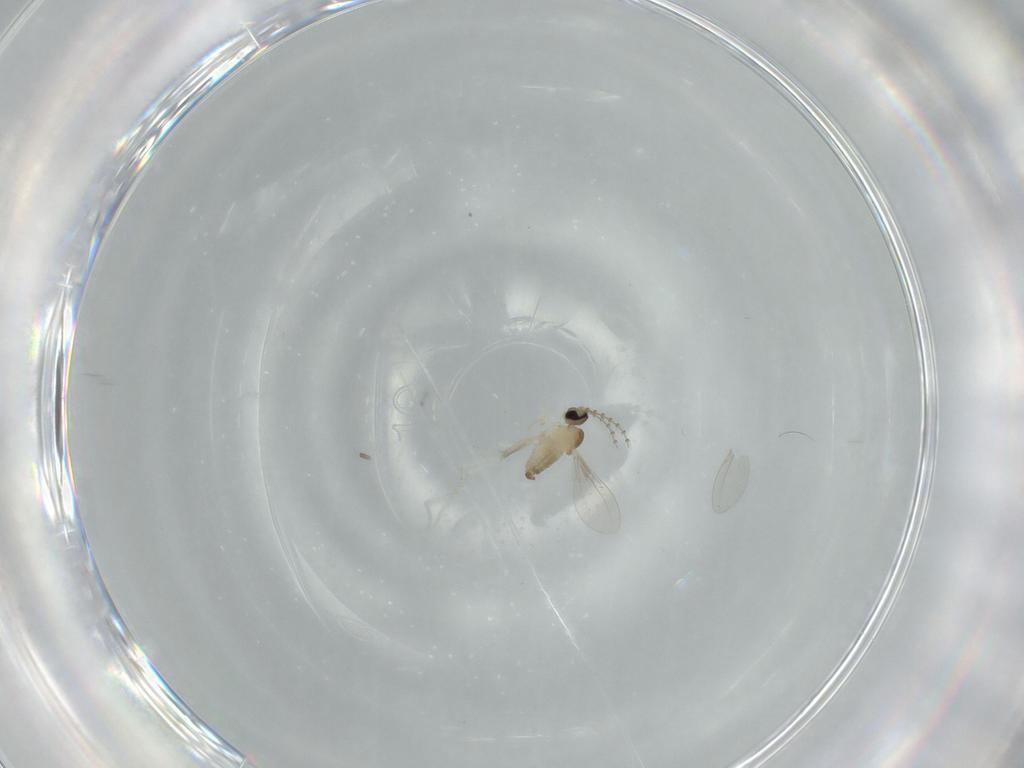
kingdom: Animalia
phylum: Arthropoda
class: Insecta
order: Diptera
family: Cecidomyiidae
